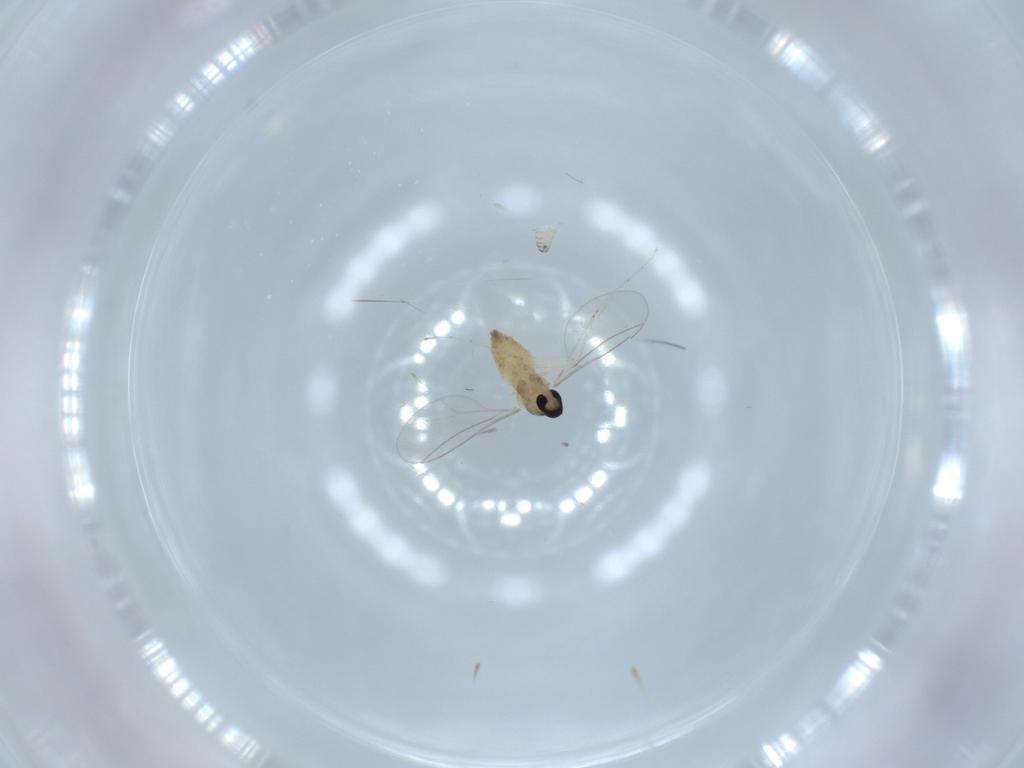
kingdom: Animalia
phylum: Arthropoda
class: Insecta
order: Diptera
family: Cecidomyiidae
